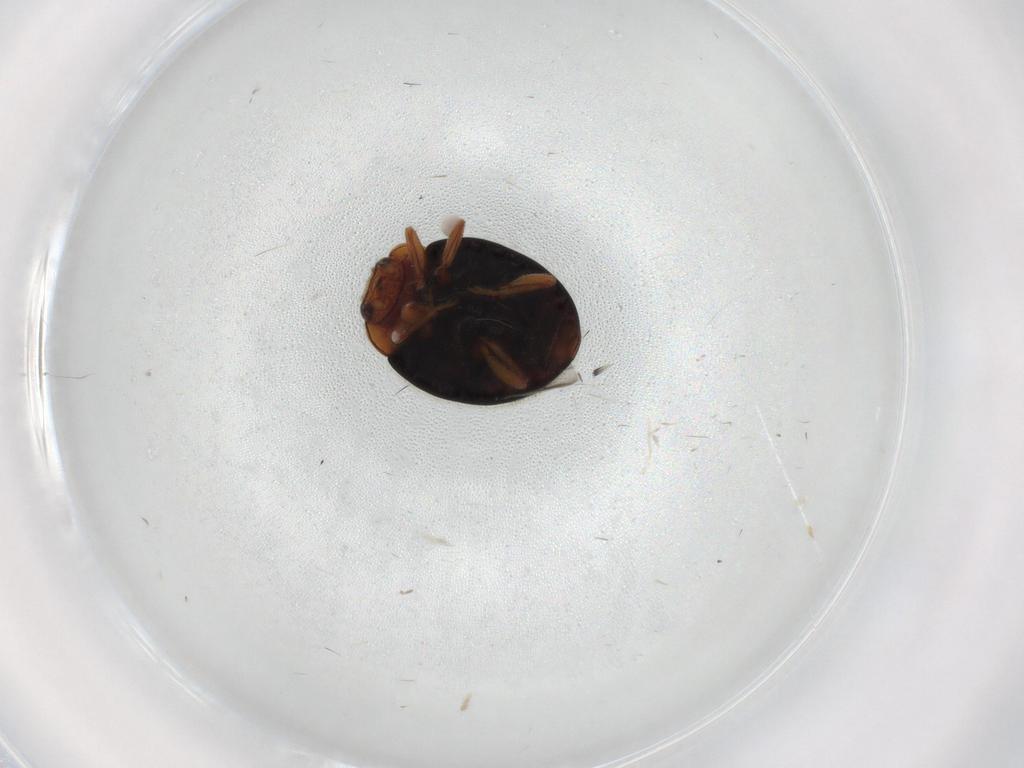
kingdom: Animalia
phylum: Arthropoda
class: Insecta
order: Coleoptera
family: Coccinellidae
